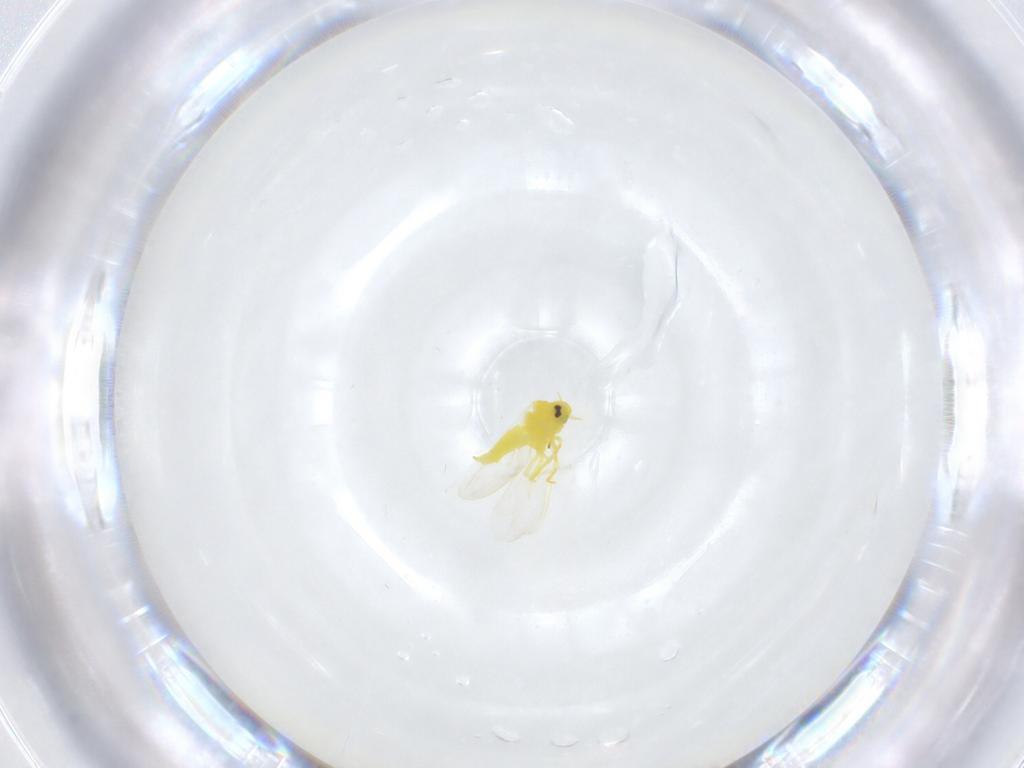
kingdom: Animalia
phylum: Arthropoda
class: Insecta
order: Hemiptera
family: Aleyrodidae
